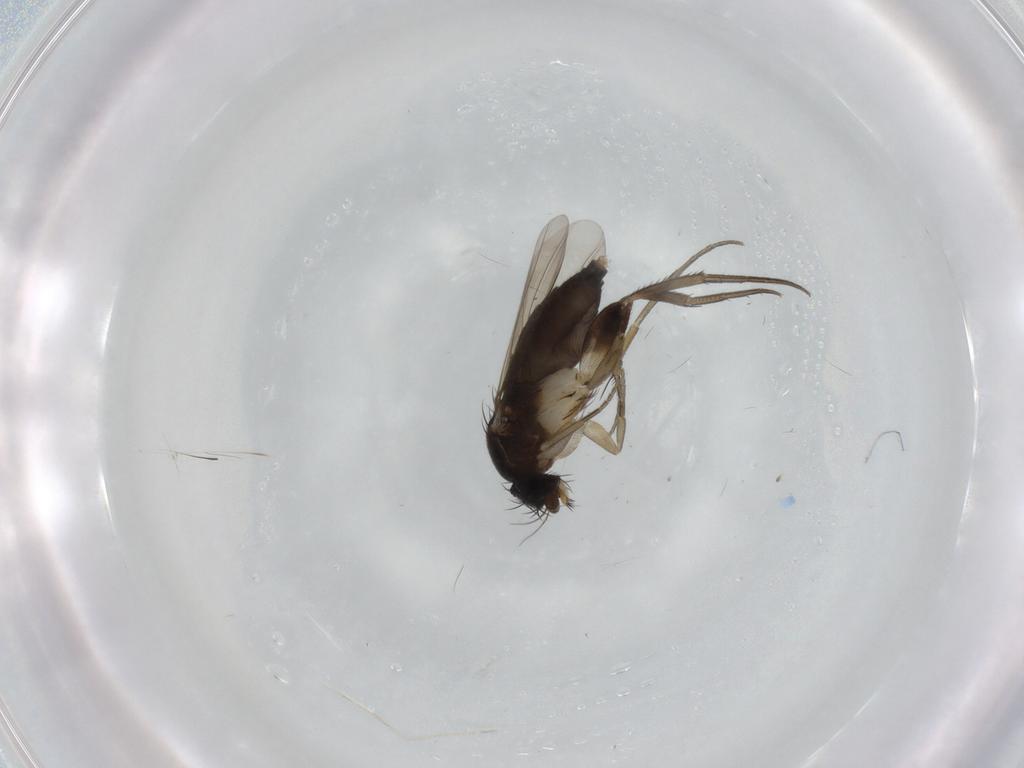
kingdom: Animalia
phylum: Arthropoda
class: Insecta
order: Diptera
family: Phoridae
